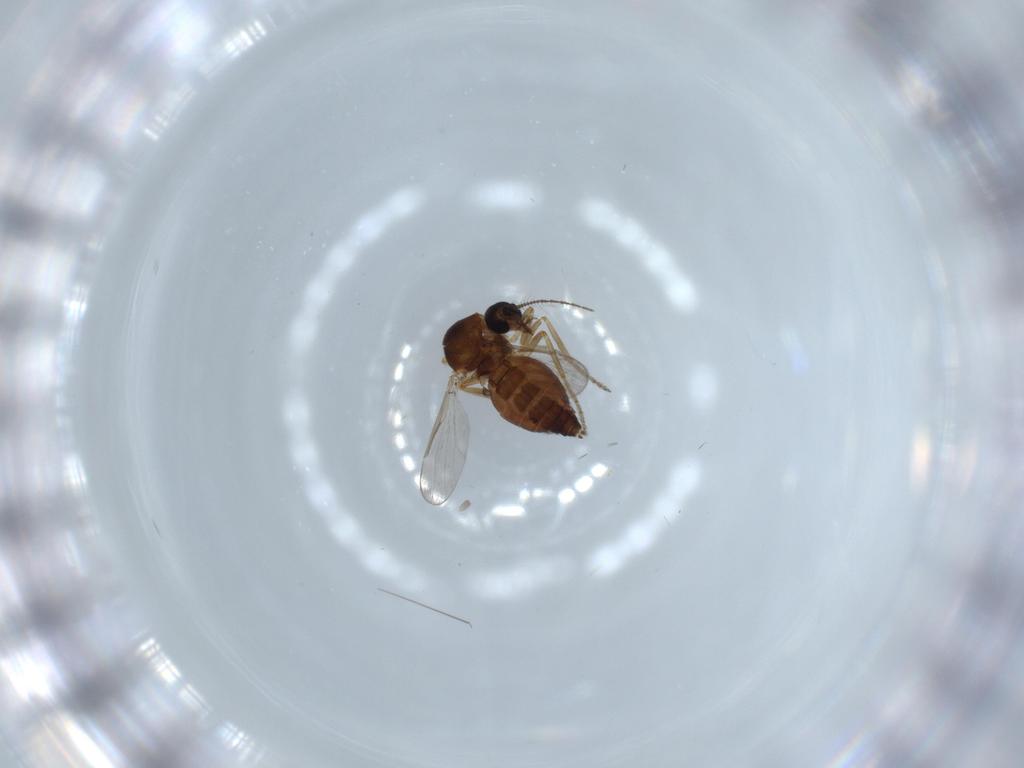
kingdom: Animalia
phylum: Arthropoda
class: Insecta
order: Diptera
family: Ceratopogonidae
